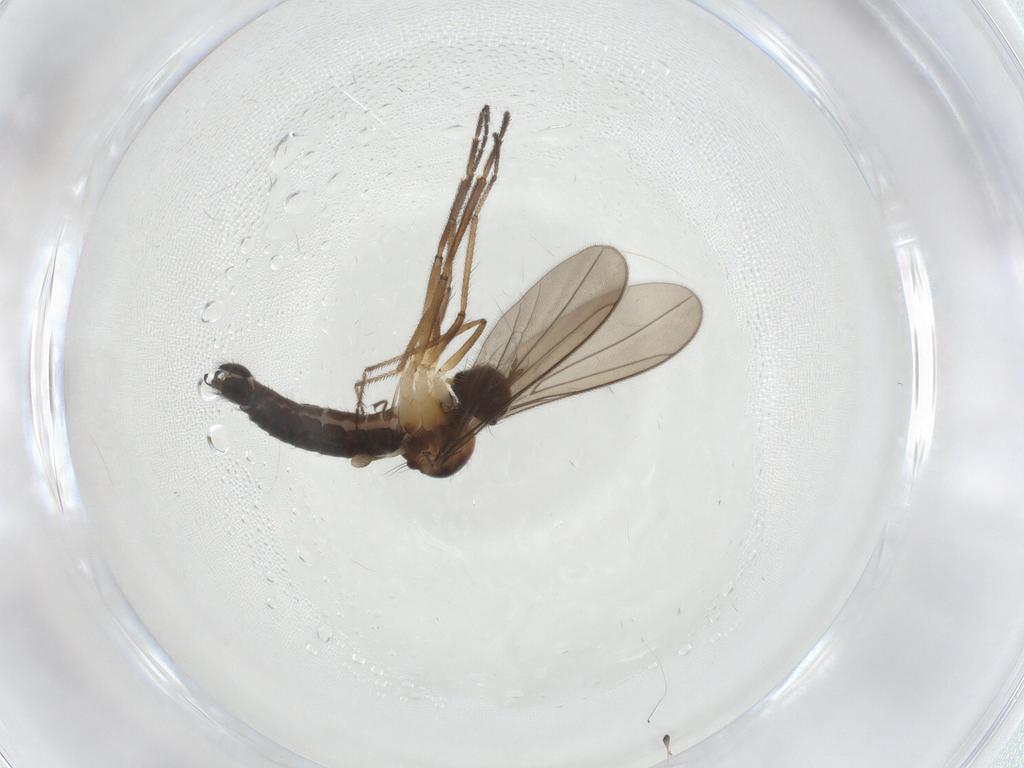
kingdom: Animalia
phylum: Arthropoda
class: Insecta
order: Diptera
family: Hybotidae
